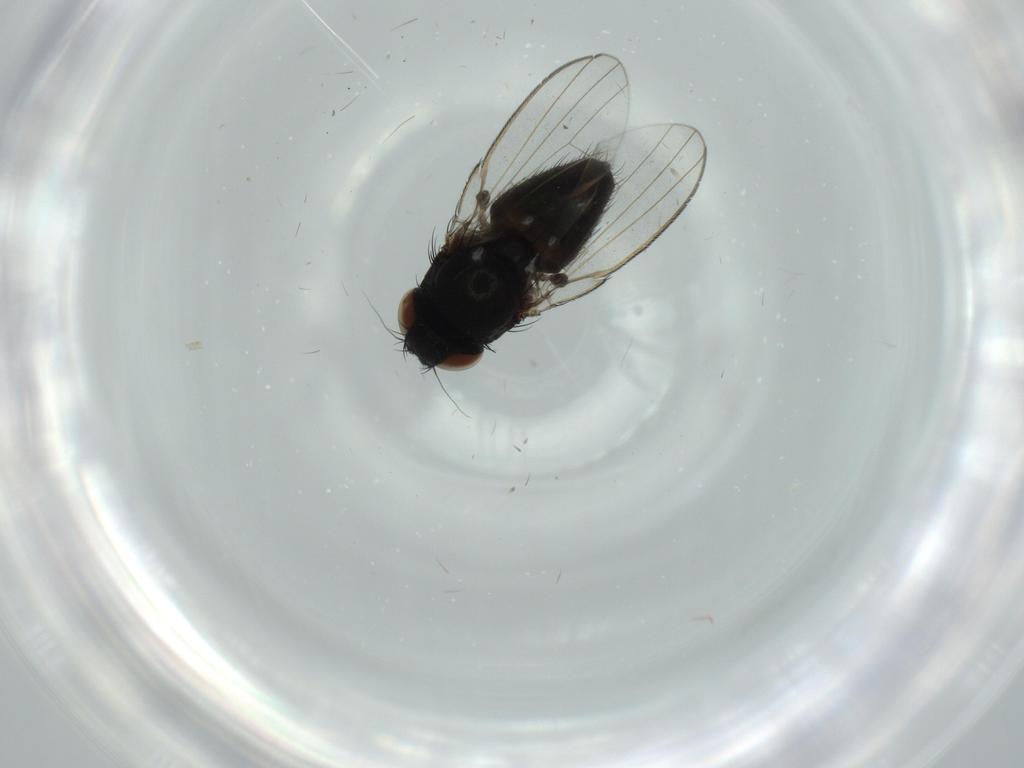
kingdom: Animalia
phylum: Arthropoda
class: Insecta
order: Diptera
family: Milichiidae
